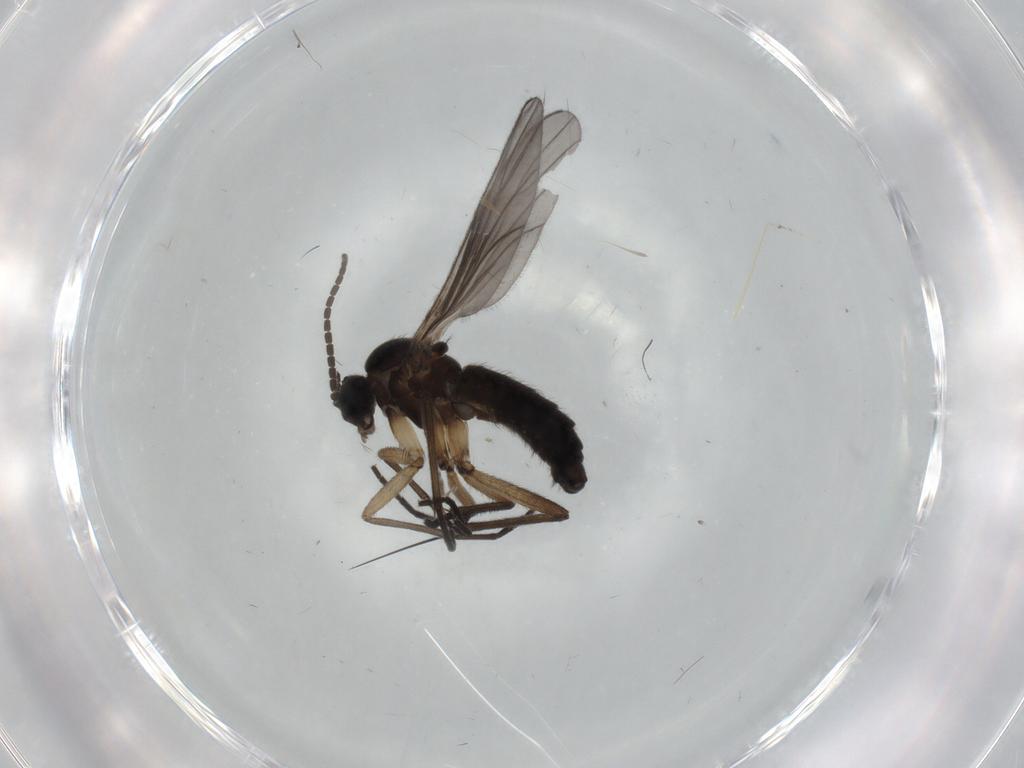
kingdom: Animalia
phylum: Arthropoda
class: Insecta
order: Diptera
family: Sciaridae
